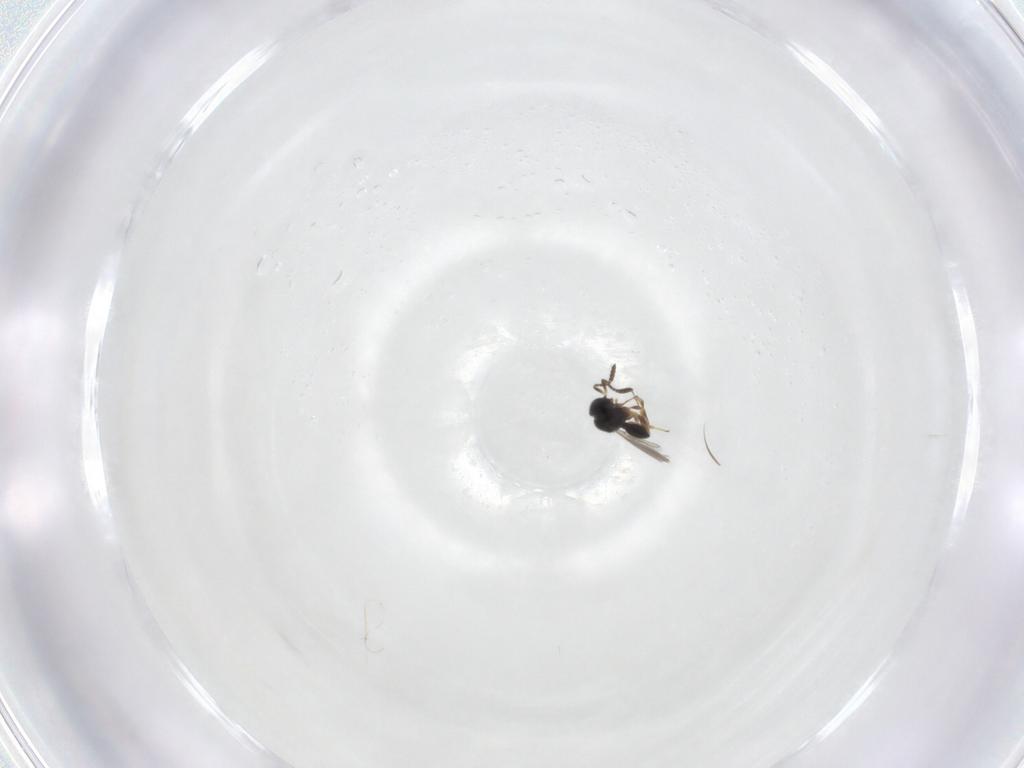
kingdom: Animalia
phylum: Arthropoda
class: Insecta
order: Hymenoptera
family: Scelionidae
